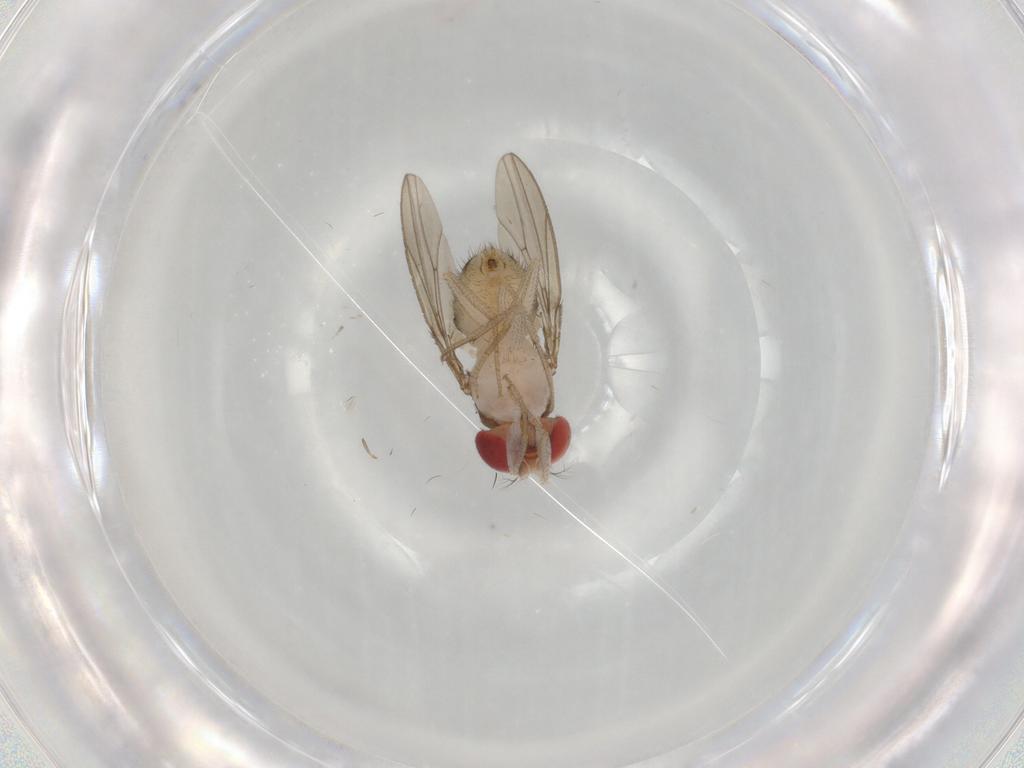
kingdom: Animalia
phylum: Arthropoda
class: Insecta
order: Diptera
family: Drosophilidae
